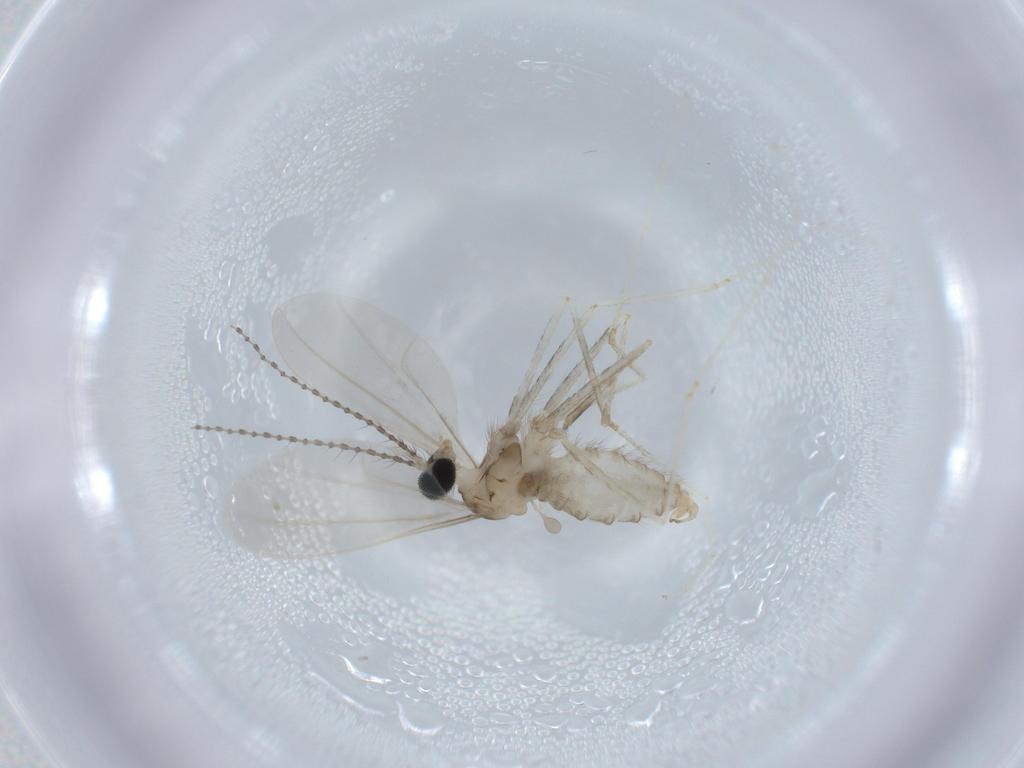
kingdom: Animalia
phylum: Arthropoda
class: Insecta
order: Diptera
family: Cecidomyiidae
